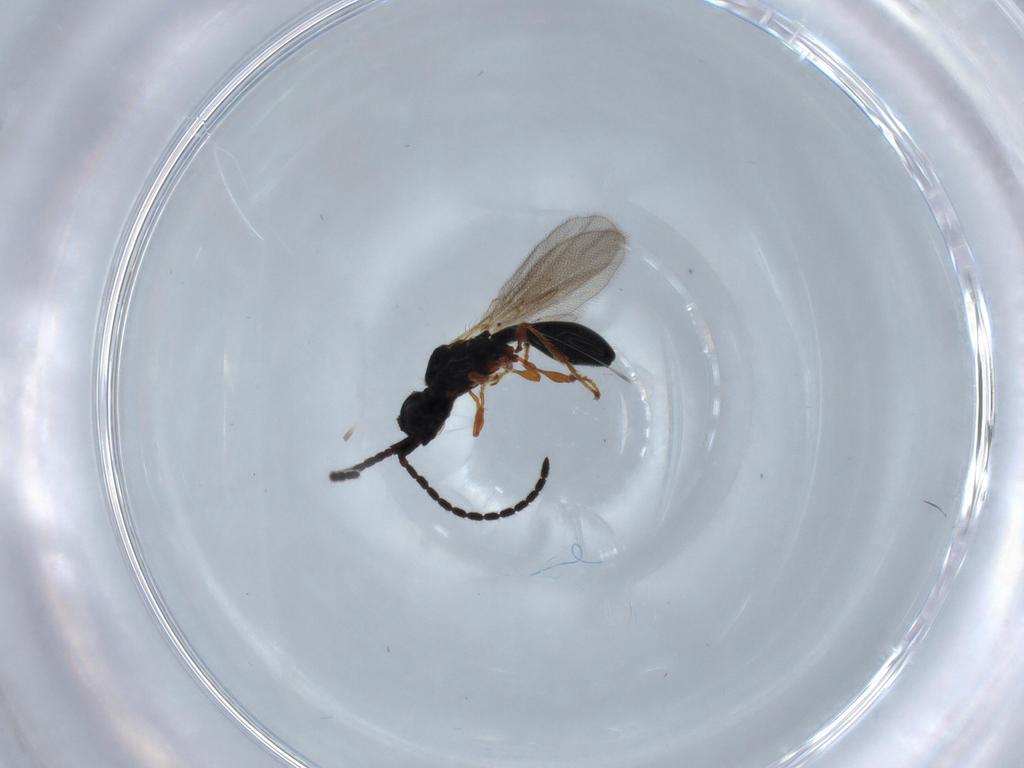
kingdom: Animalia
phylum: Arthropoda
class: Insecta
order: Hymenoptera
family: Diapriidae
